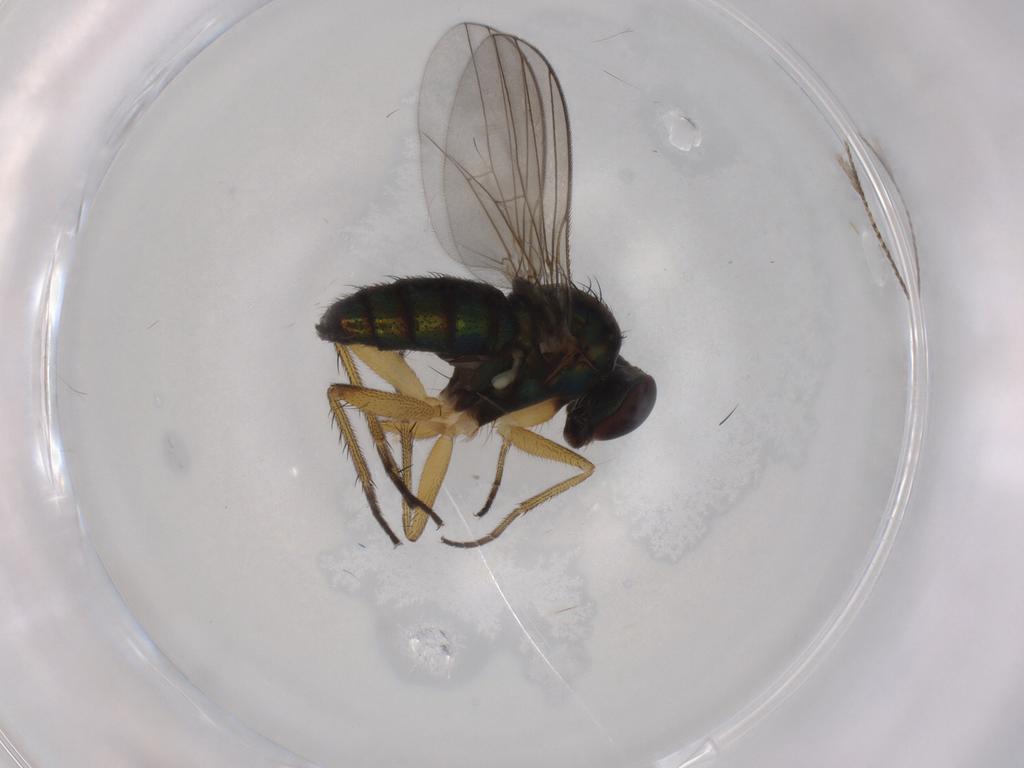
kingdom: Animalia
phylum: Arthropoda
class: Insecta
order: Diptera
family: Dolichopodidae
